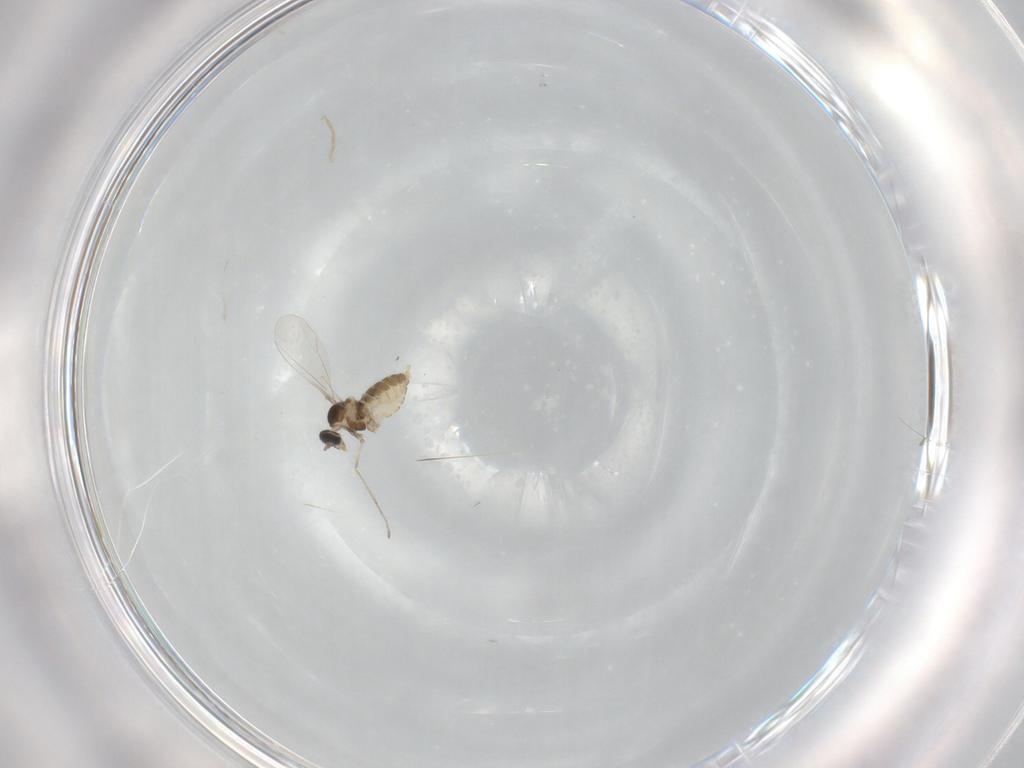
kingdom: Animalia
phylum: Arthropoda
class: Insecta
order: Diptera
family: Cecidomyiidae
